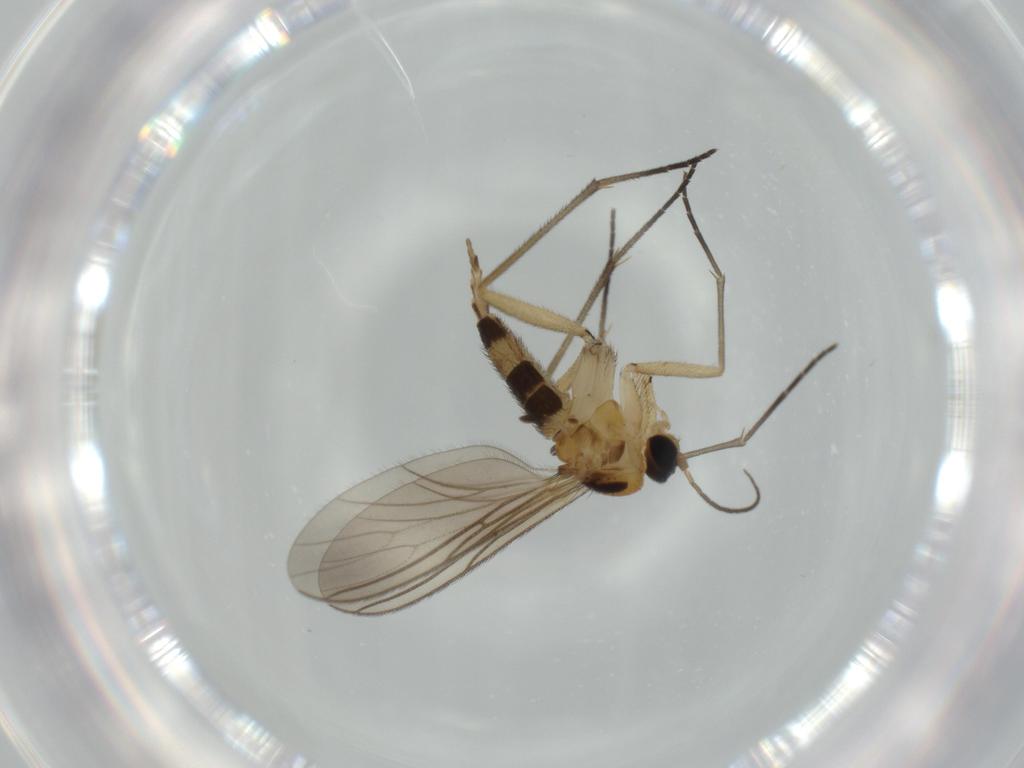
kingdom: Animalia
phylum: Arthropoda
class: Insecta
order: Diptera
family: Sciaridae
